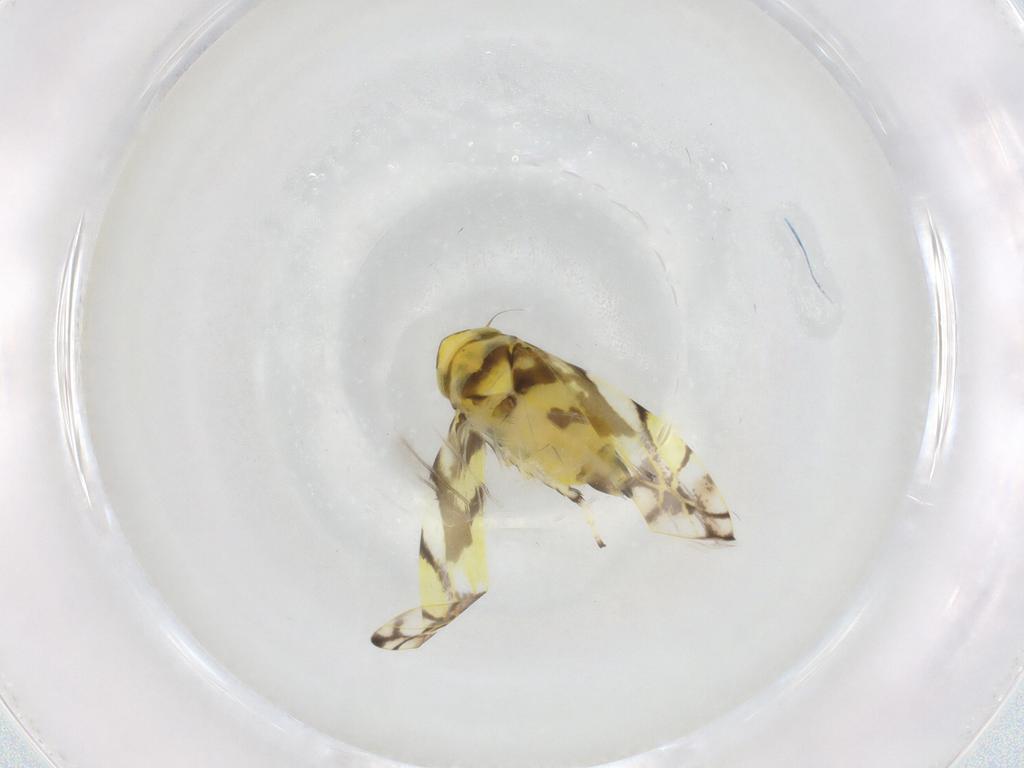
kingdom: Animalia
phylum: Arthropoda
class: Insecta
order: Hemiptera
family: Cicadellidae
